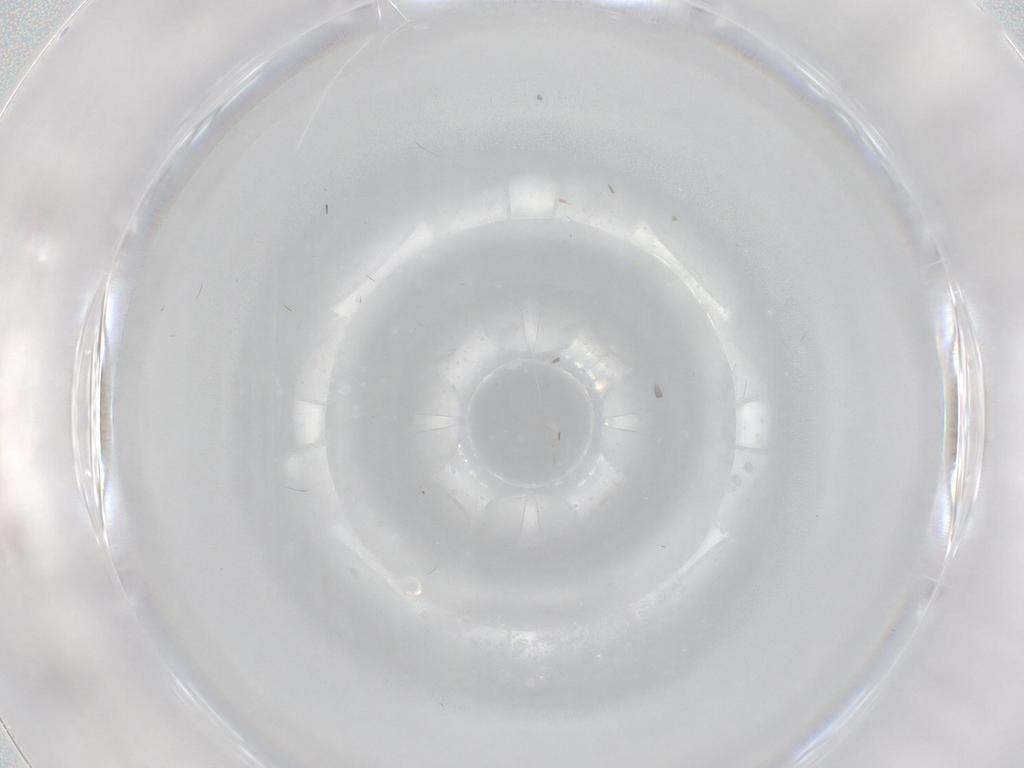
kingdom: Animalia
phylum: Arthropoda
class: Insecta
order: Diptera
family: Cecidomyiidae
